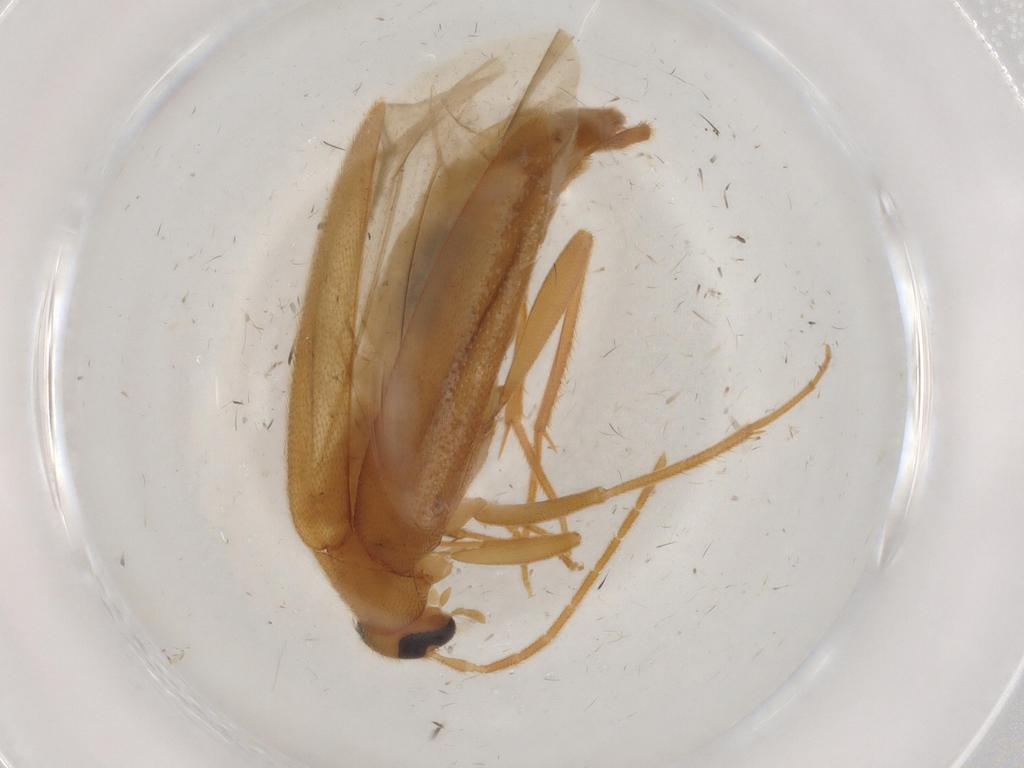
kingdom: Animalia
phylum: Arthropoda
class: Insecta
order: Coleoptera
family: Scraptiidae
